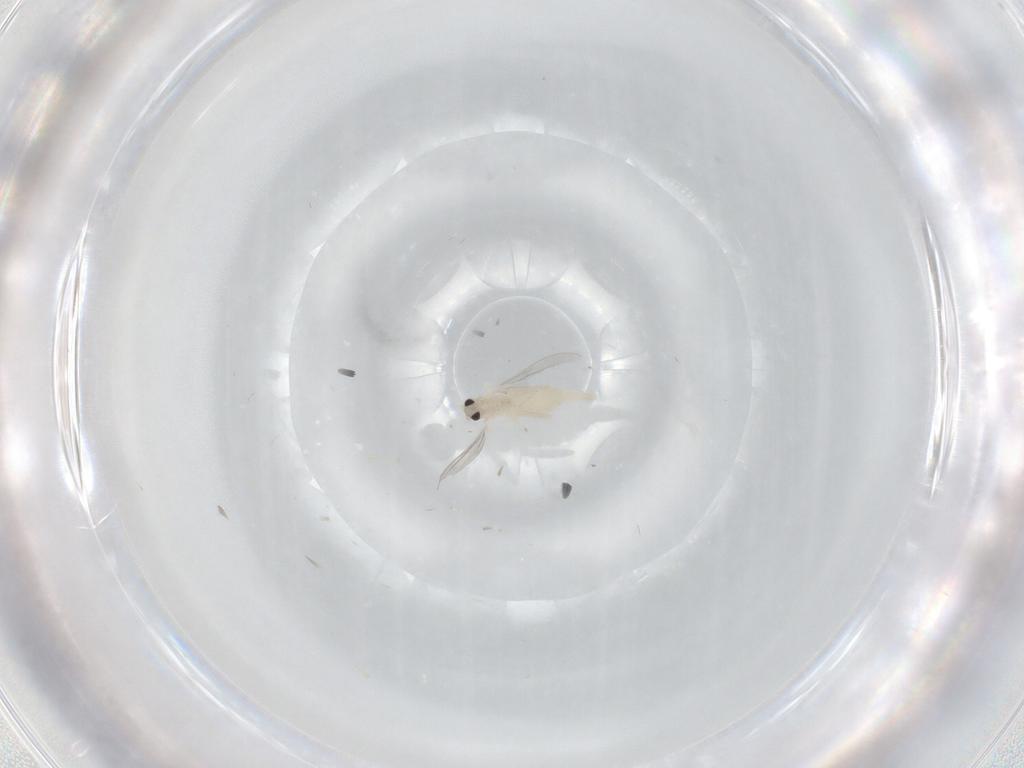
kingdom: Animalia
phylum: Arthropoda
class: Insecta
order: Diptera
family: Cecidomyiidae
